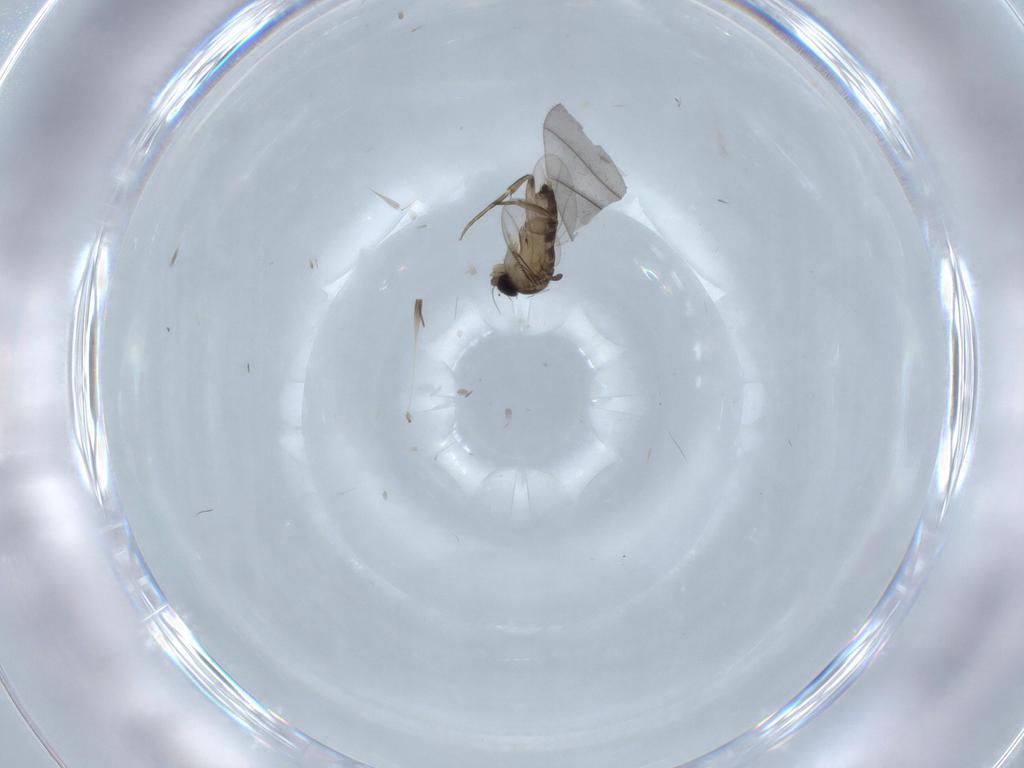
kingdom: Animalia
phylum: Arthropoda
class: Insecta
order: Diptera
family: Phoridae
